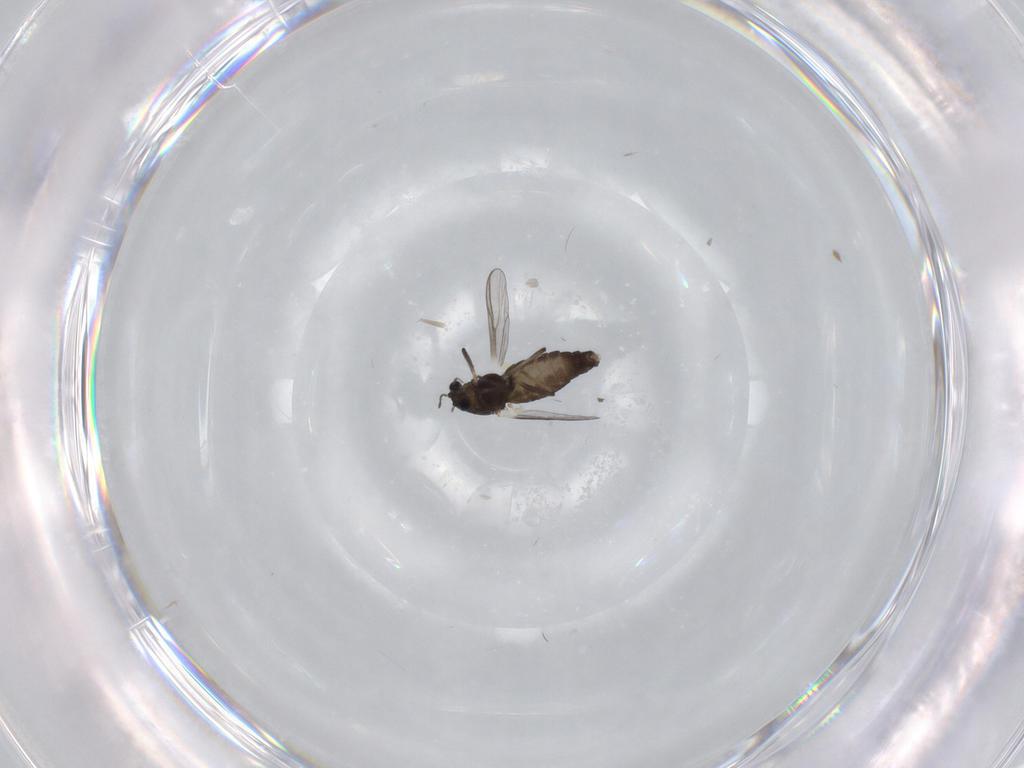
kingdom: Animalia
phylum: Arthropoda
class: Insecta
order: Diptera
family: Chironomidae
